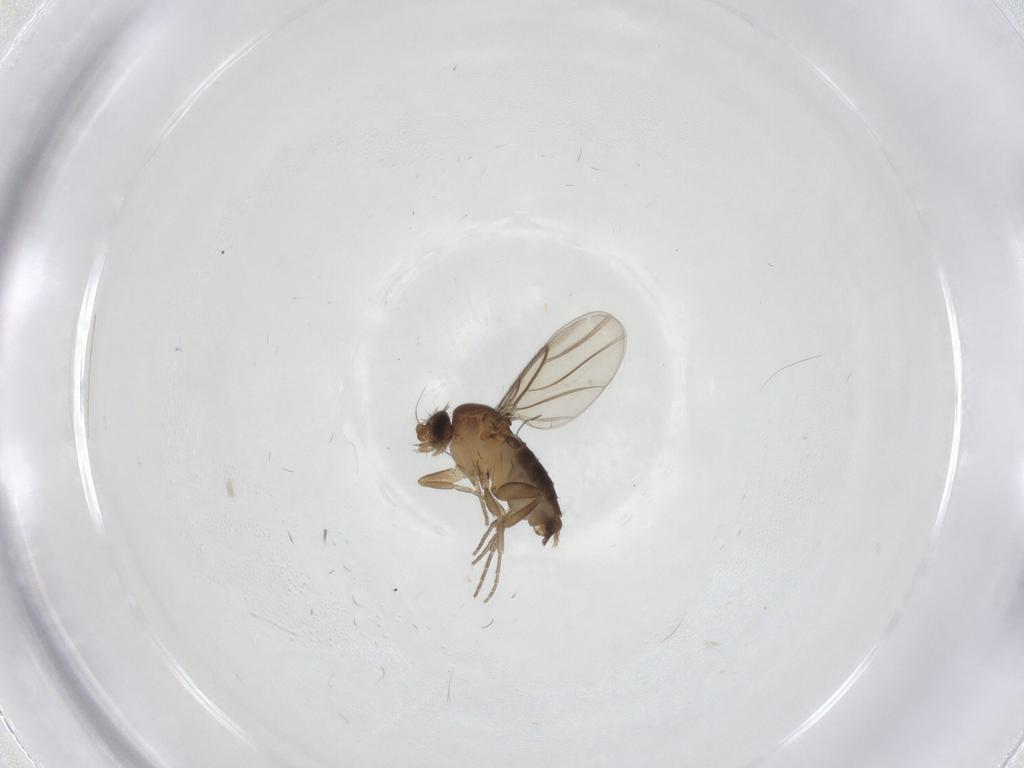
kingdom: Animalia
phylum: Arthropoda
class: Insecta
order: Diptera
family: Phoridae
